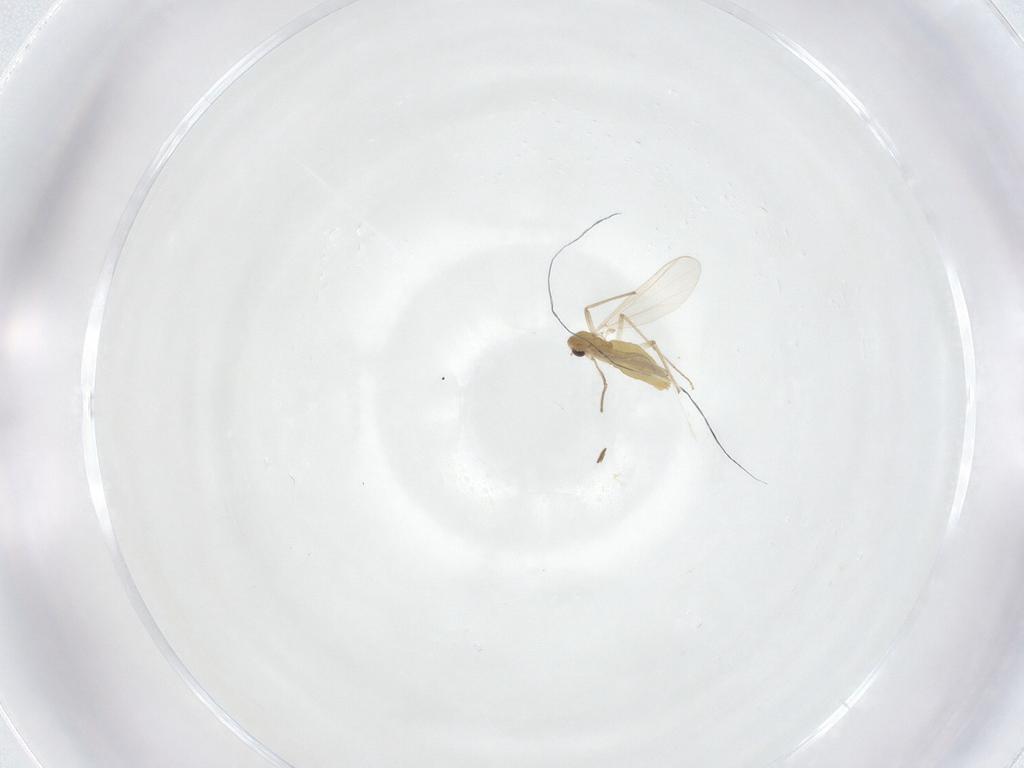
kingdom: Animalia
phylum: Arthropoda
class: Insecta
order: Diptera
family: Chironomidae
